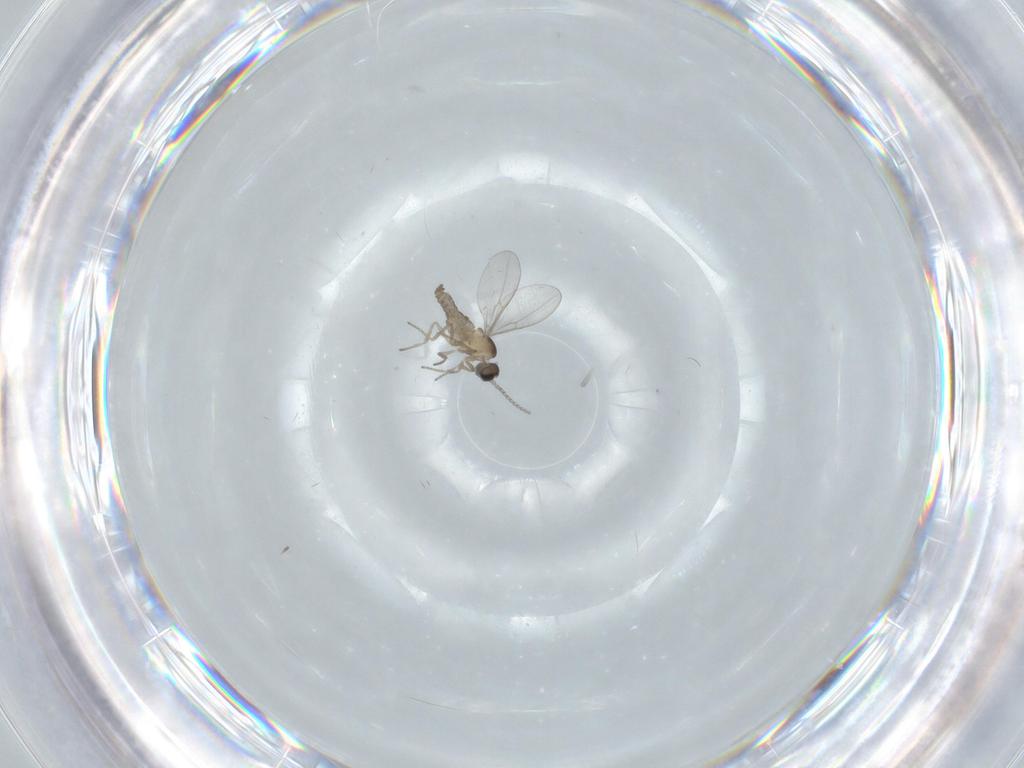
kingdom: Animalia
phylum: Arthropoda
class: Insecta
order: Diptera
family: Cecidomyiidae
